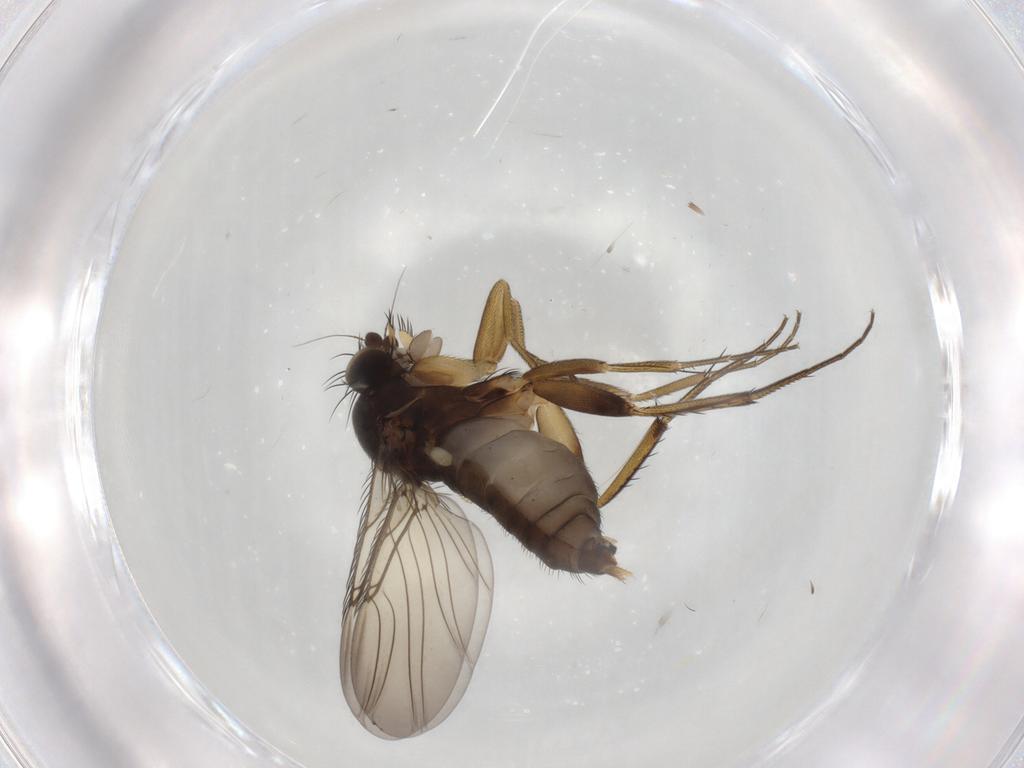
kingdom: Animalia
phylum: Arthropoda
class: Insecta
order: Diptera
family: Phoridae
